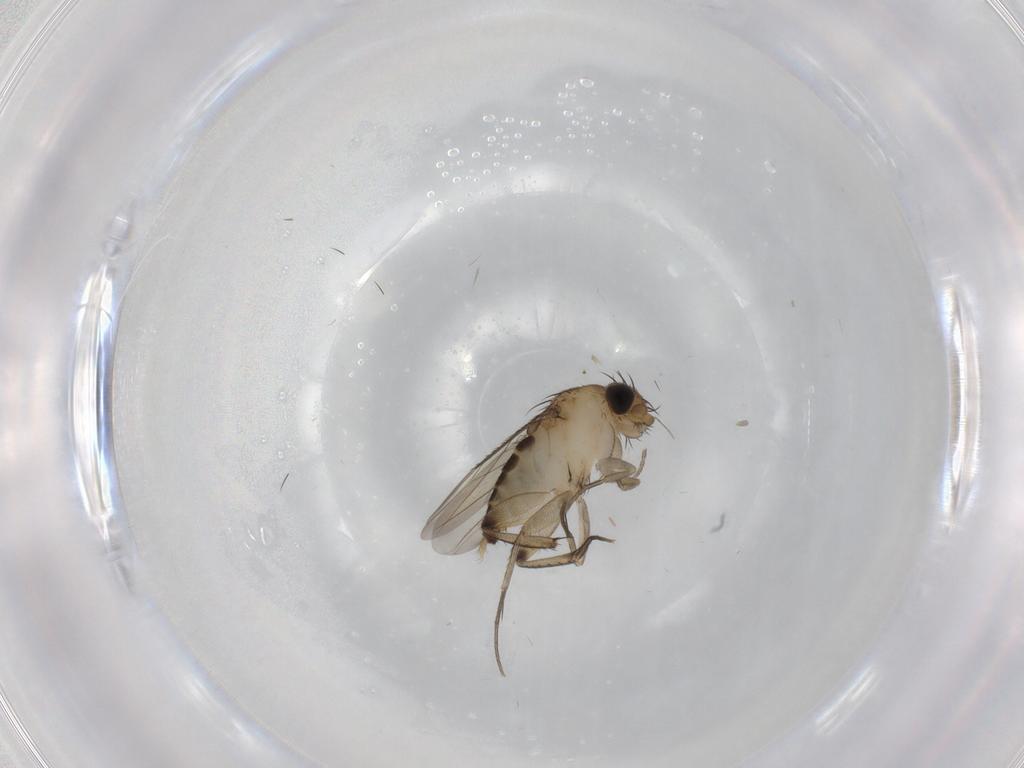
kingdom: Animalia
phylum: Arthropoda
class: Insecta
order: Diptera
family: Phoridae
